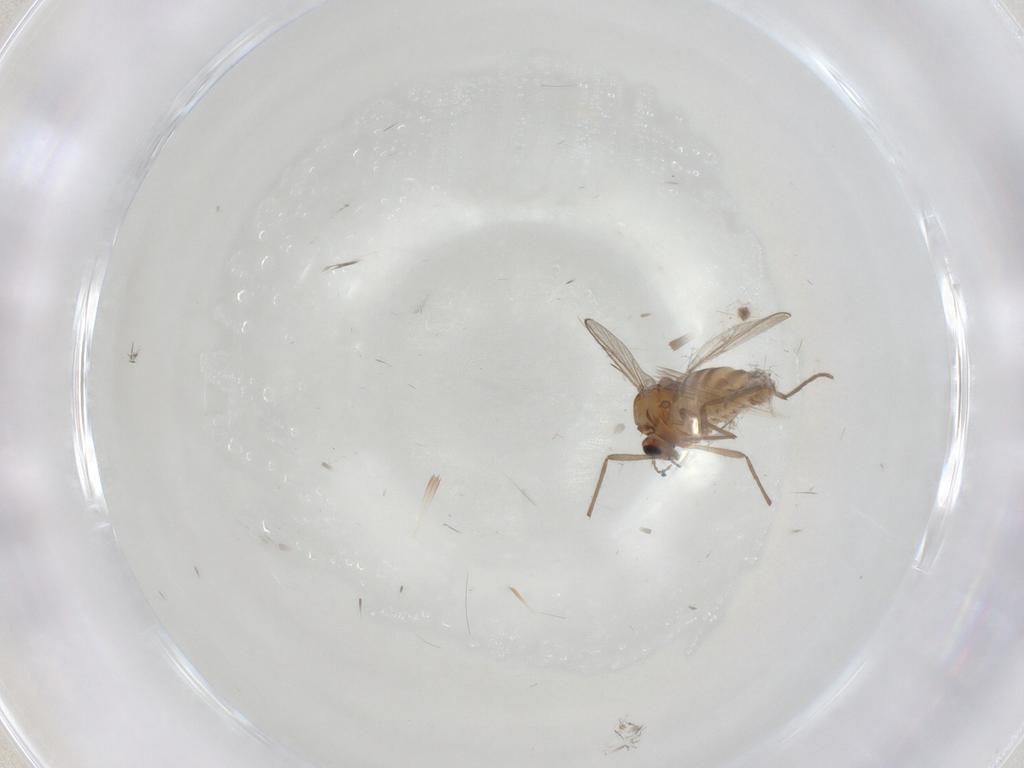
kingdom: Animalia
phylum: Arthropoda
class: Insecta
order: Diptera
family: Chironomidae
